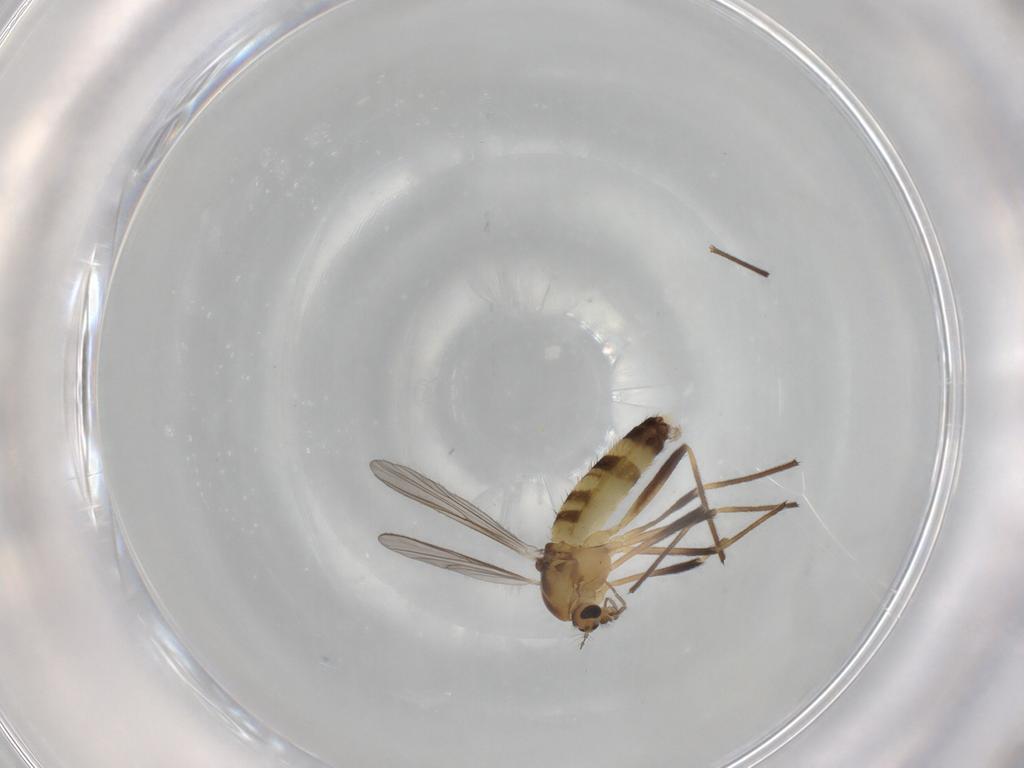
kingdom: Animalia
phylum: Arthropoda
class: Insecta
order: Diptera
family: Chironomidae
